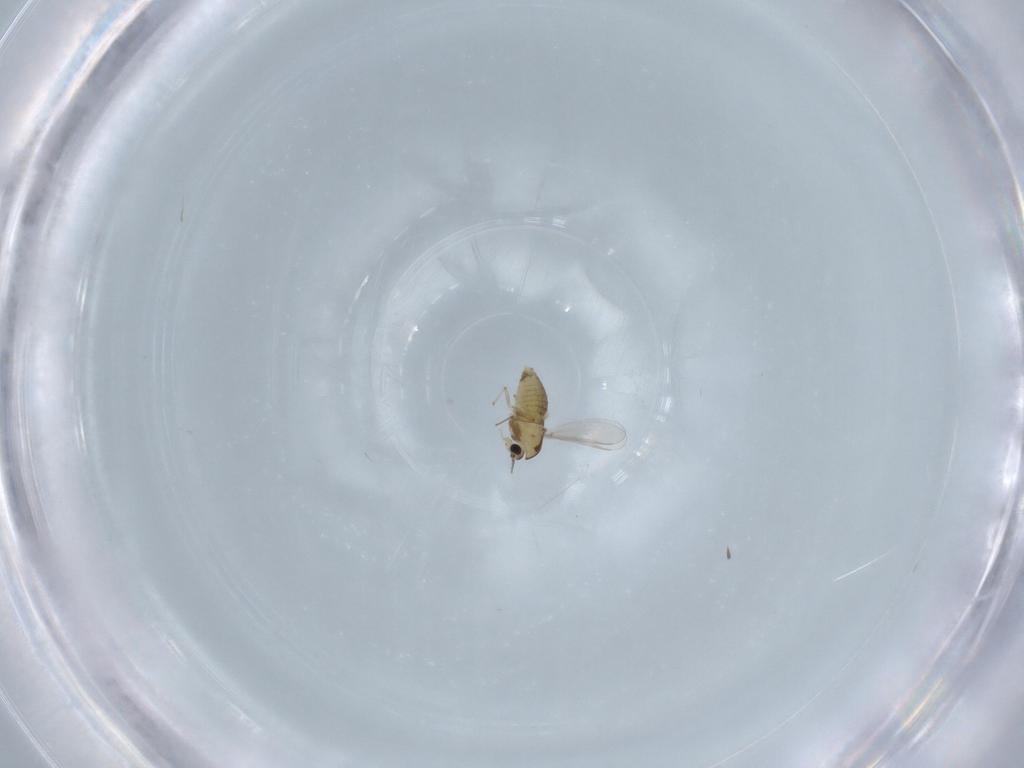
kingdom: Animalia
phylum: Arthropoda
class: Insecta
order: Diptera
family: Chironomidae
